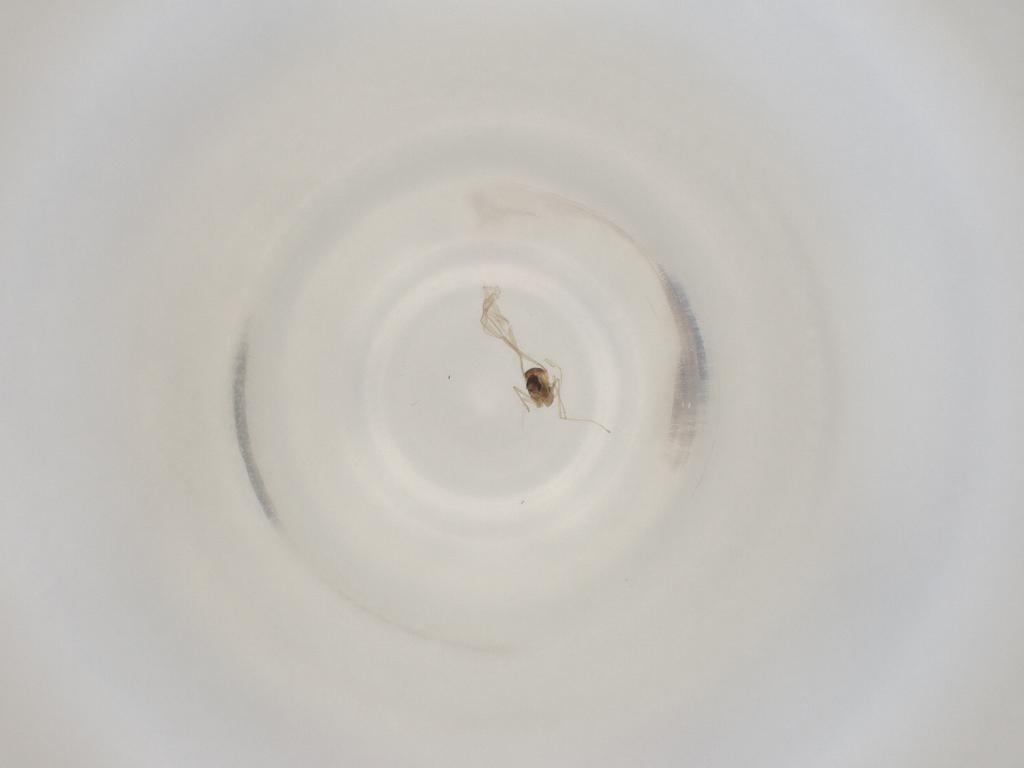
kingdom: Animalia
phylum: Arthropoda
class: Insecta
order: Diptera
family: Cecidomyiidae
